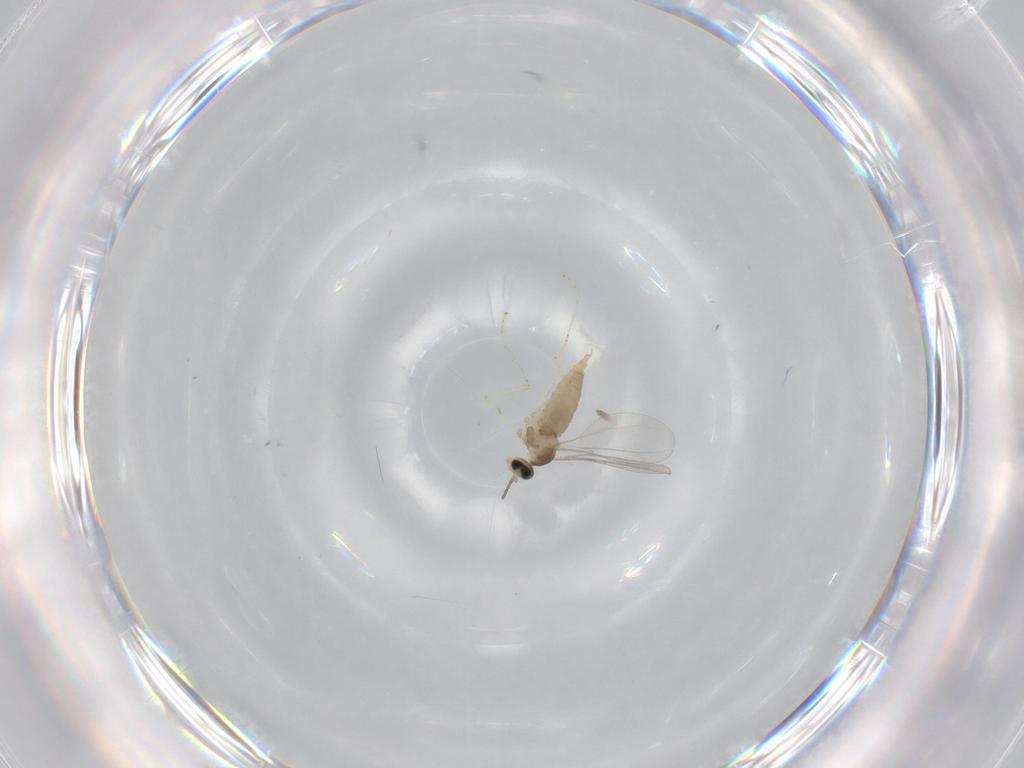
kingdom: Animalia
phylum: Arthropoda
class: Insecta
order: Diptera
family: Cecidomyiidae
